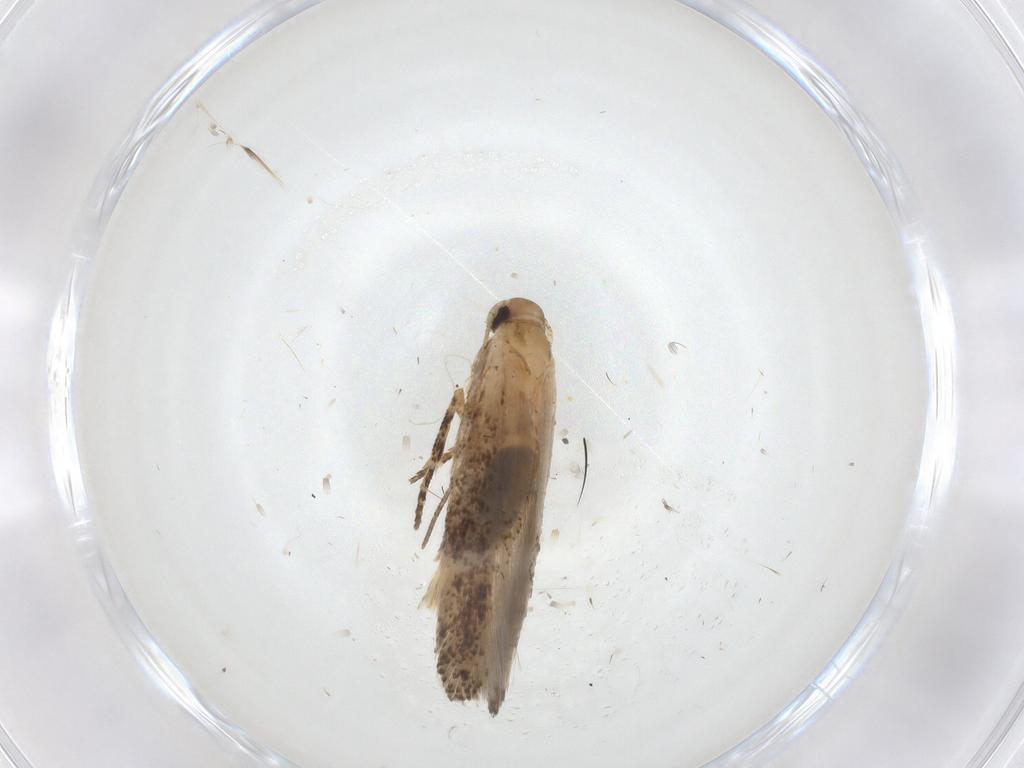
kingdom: Animalia
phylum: Arthropoda
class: Insecta
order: Lepidoptera
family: Gelechiidae
